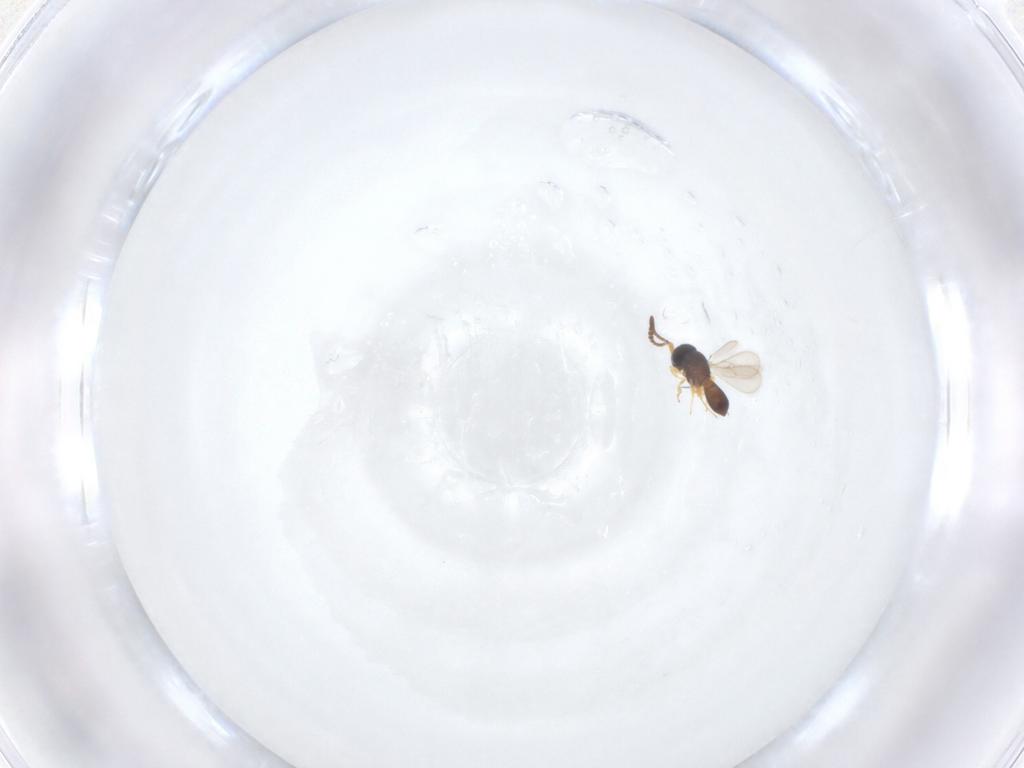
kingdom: Animalia
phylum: Arthropoda
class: Insecta
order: Hymenoptera
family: Scelionidae
